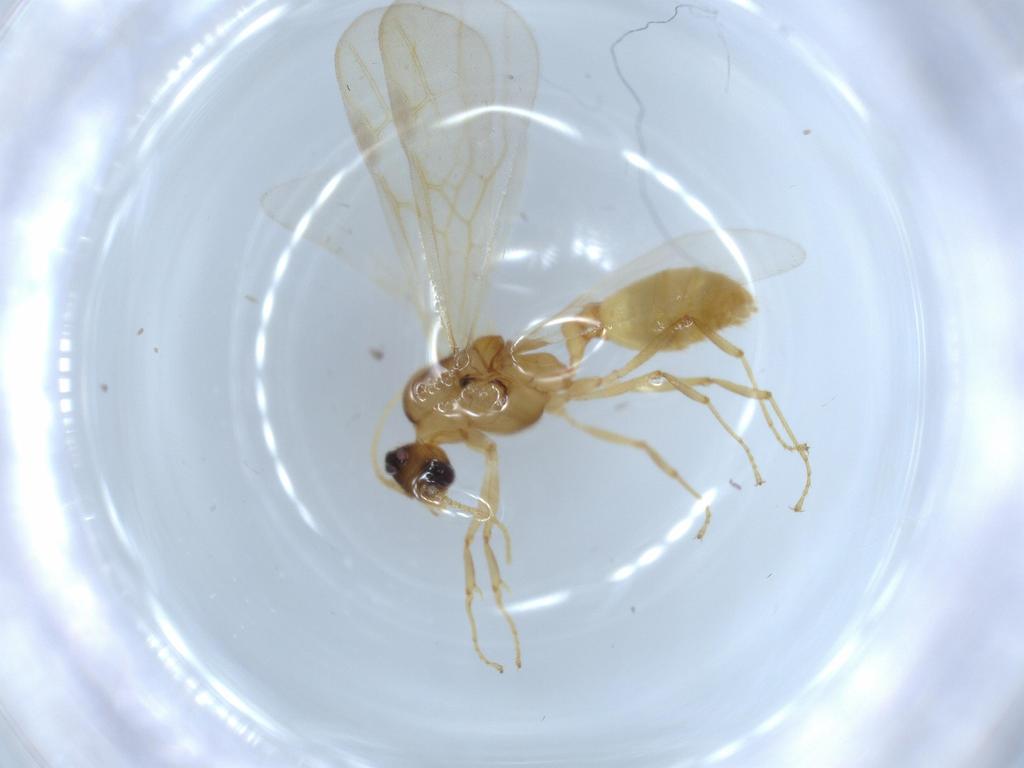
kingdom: Animalia
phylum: Arthropoda
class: Insecta
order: Hymenoptera
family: Formicidae
